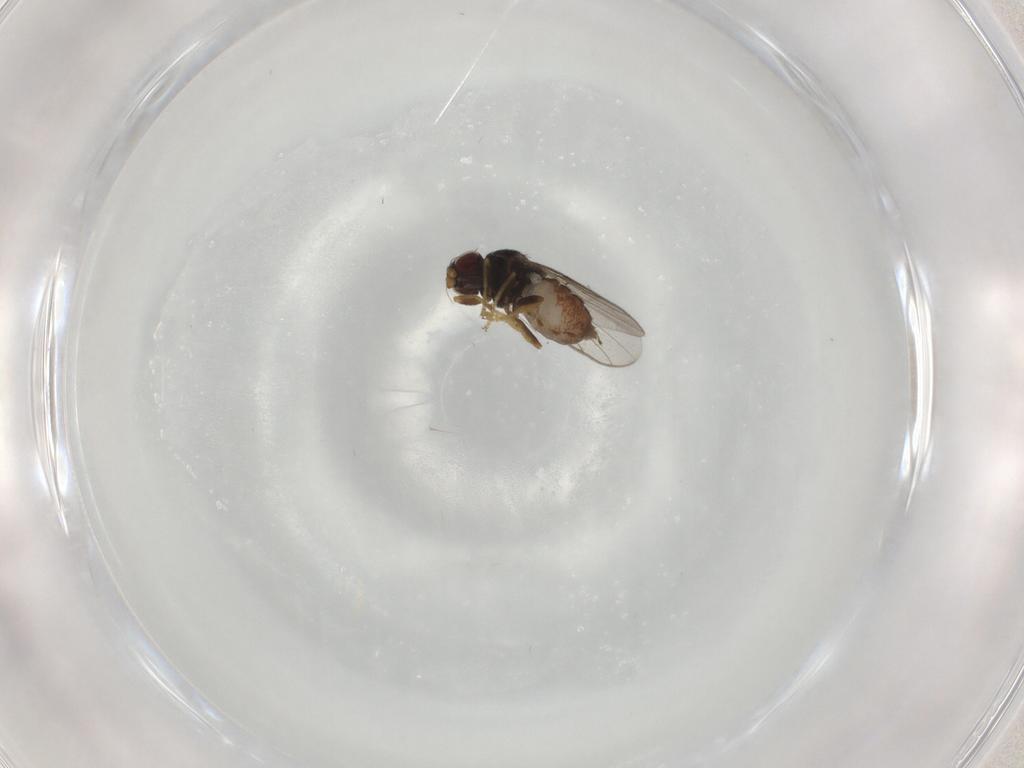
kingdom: Animalia
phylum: Arthropoda
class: Insecta
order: Diptera
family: Chloropidae
